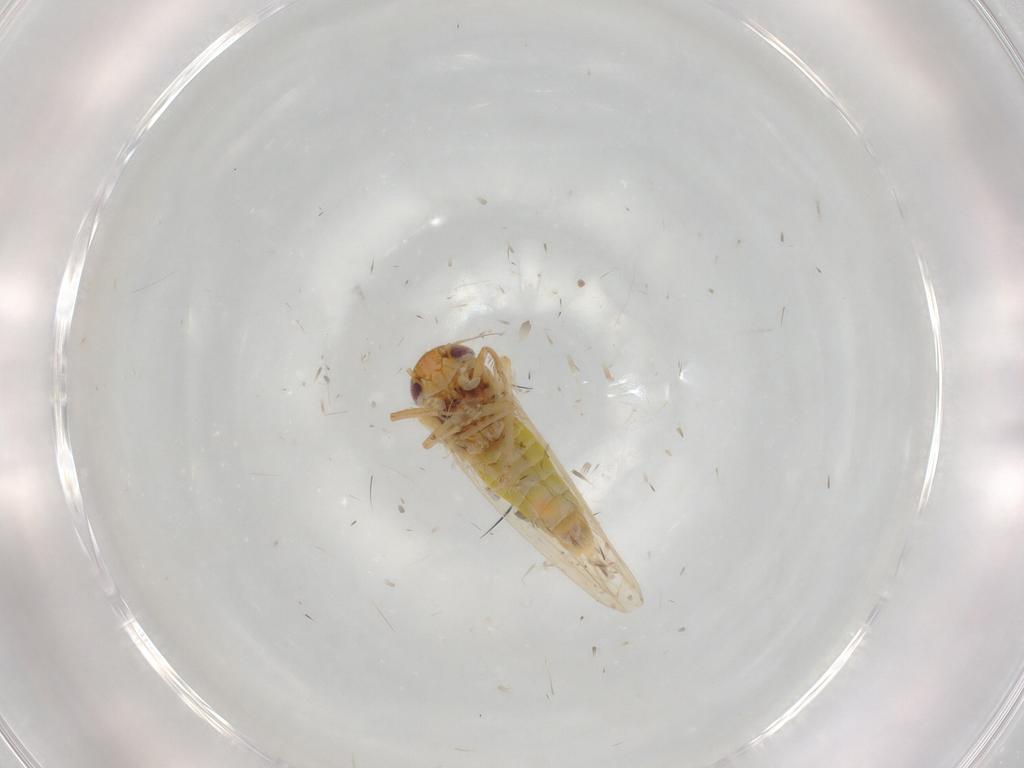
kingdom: Animalia
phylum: Arthropoda
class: Insecta
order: Hemiptera
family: Cicadellidae
